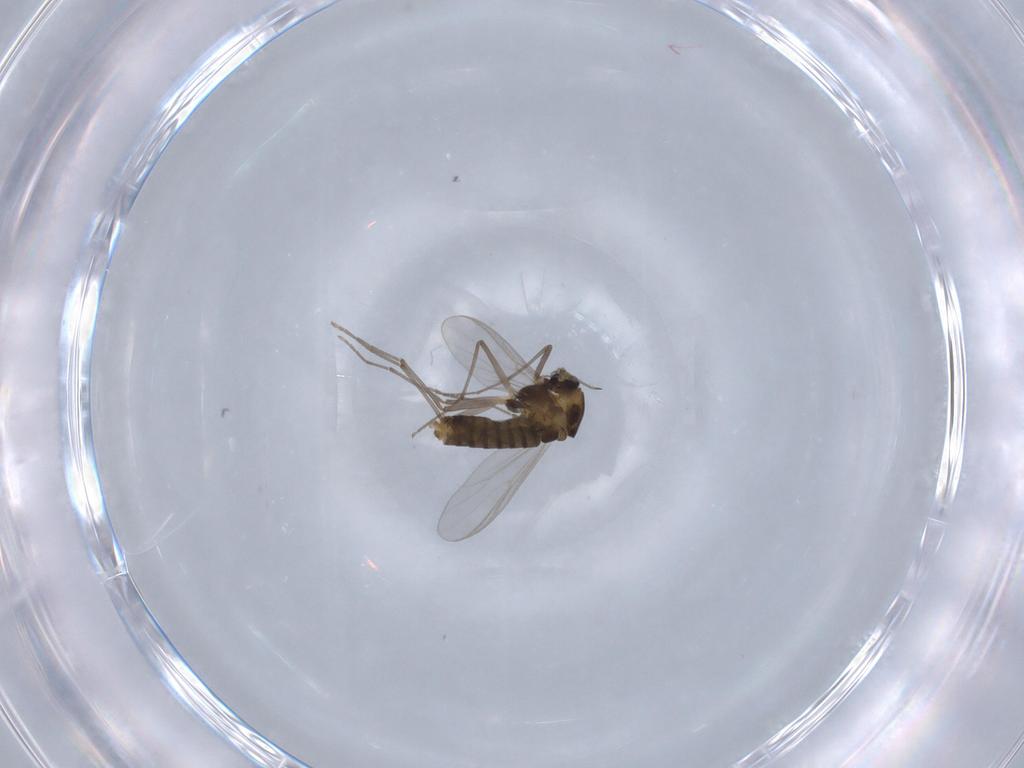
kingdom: Animalia
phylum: Arthropoda
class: Insecta
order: Diptera
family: Chironomidae
